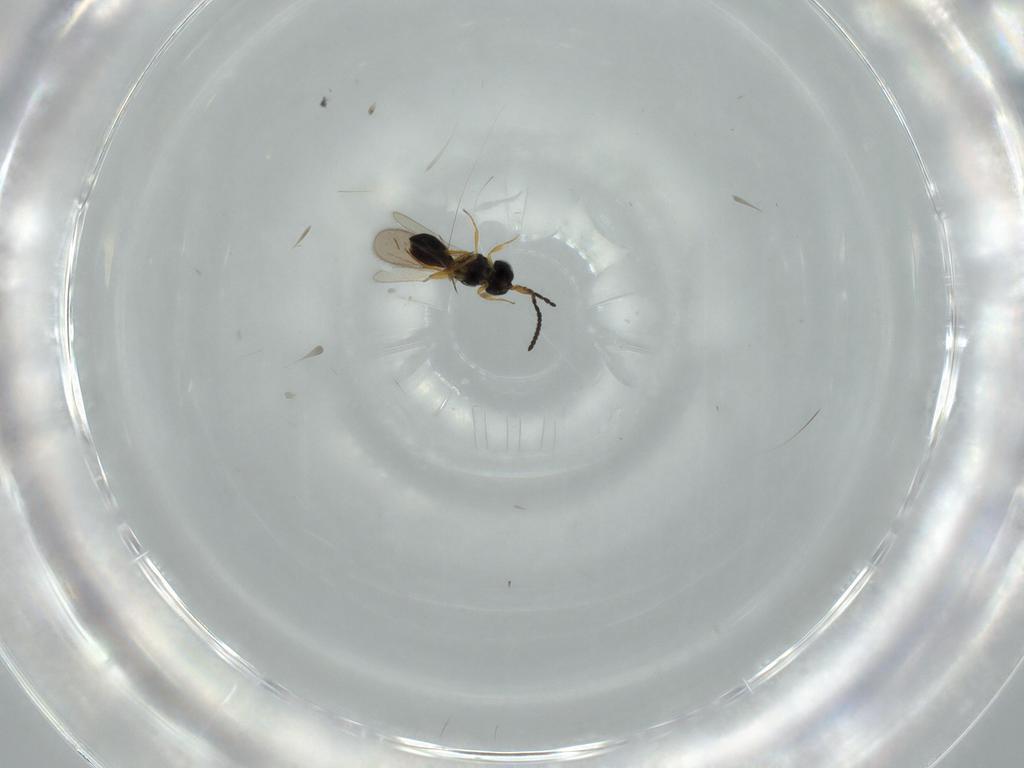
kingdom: Animalia
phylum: Arthropoda
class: Insecta
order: Hymenoptera
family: Scelionidae
